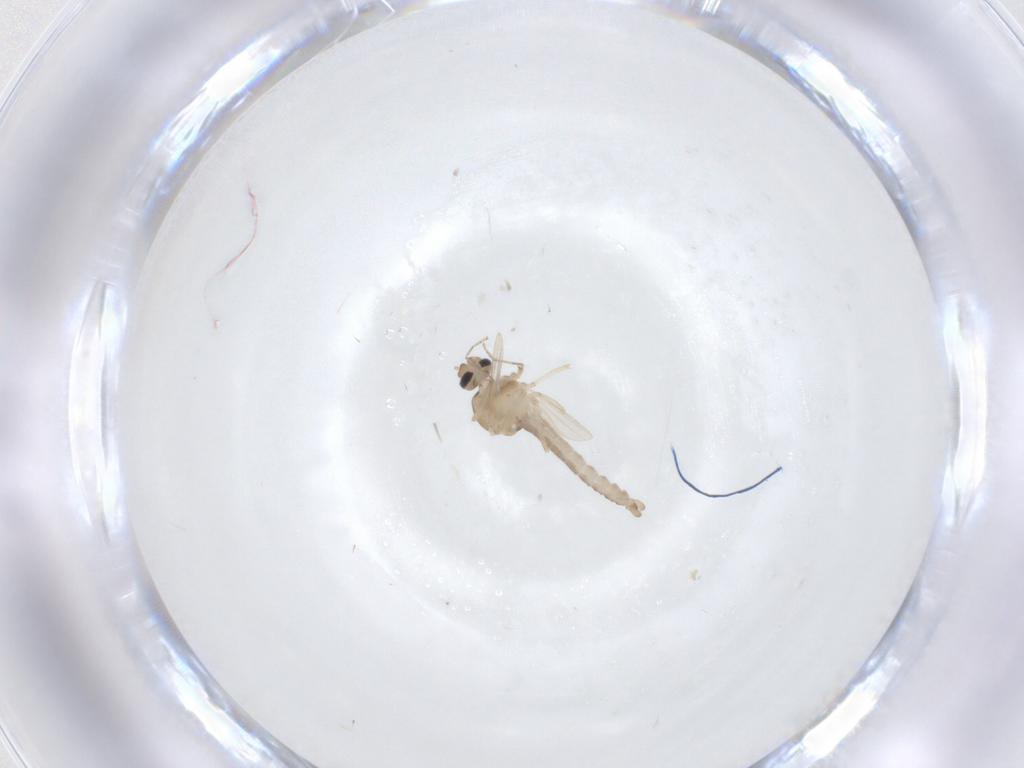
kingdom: Animalia
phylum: Arthropoda
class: Insecta
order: Diptera
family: Ceratopogonidae
